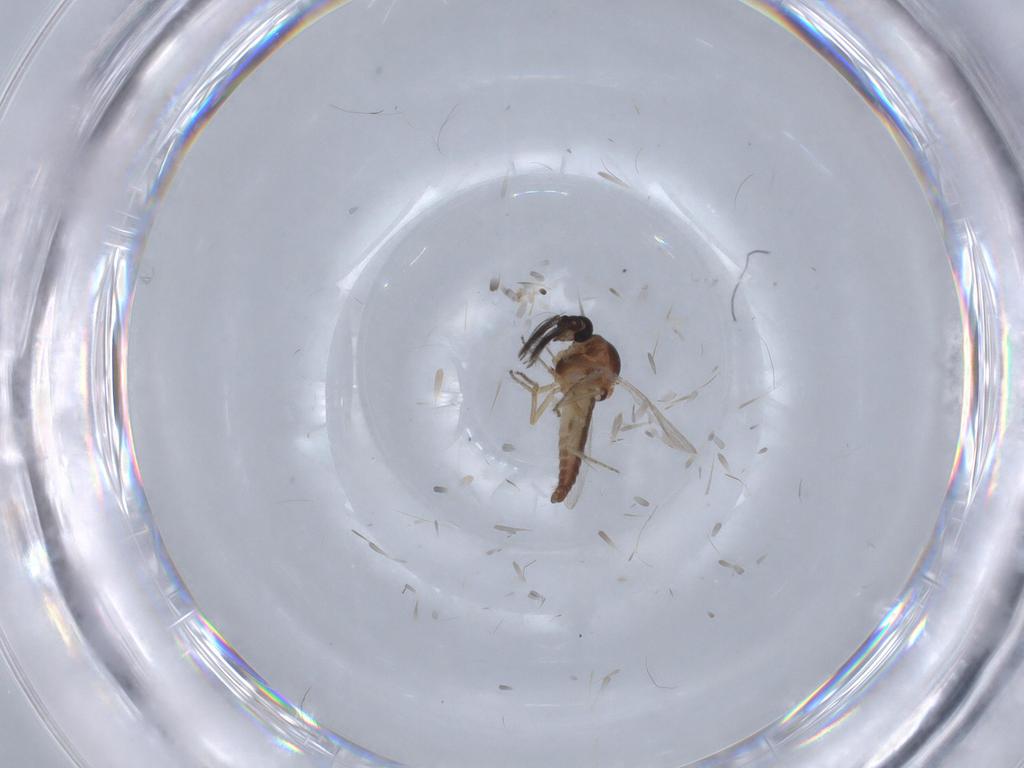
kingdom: Animalia
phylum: Arthropoda
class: Insecta
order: Diptera
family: Ceratopogonidae
